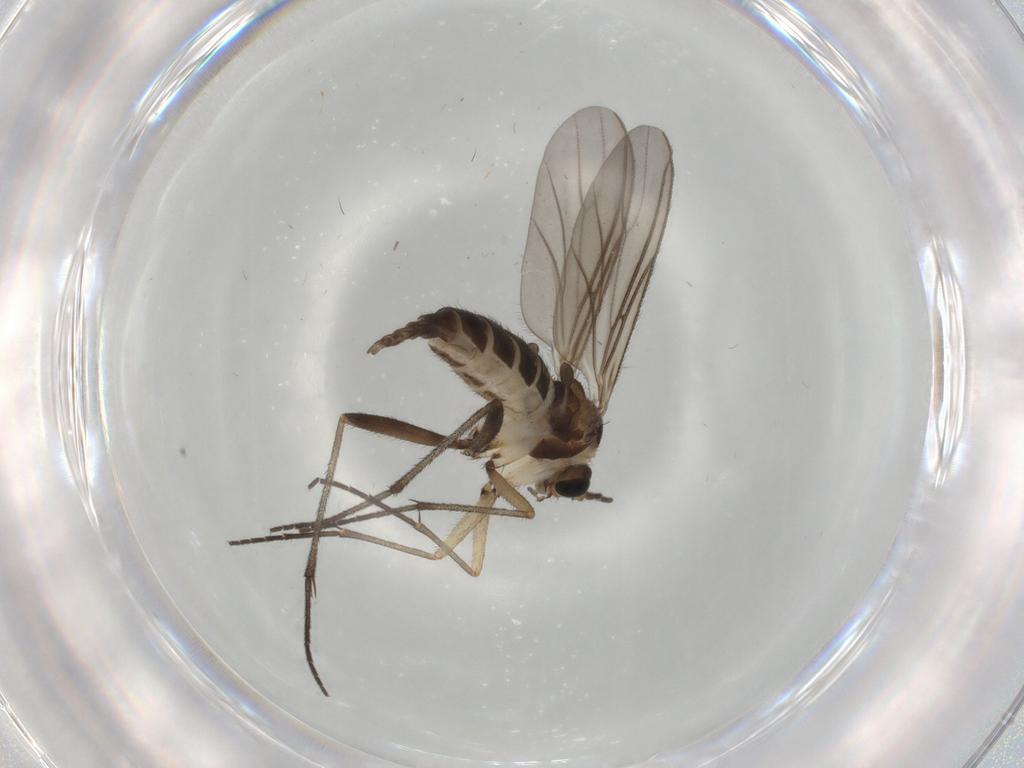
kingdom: Animalia
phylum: Arthropoda
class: Insecta
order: Diptera
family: Sciaridae
